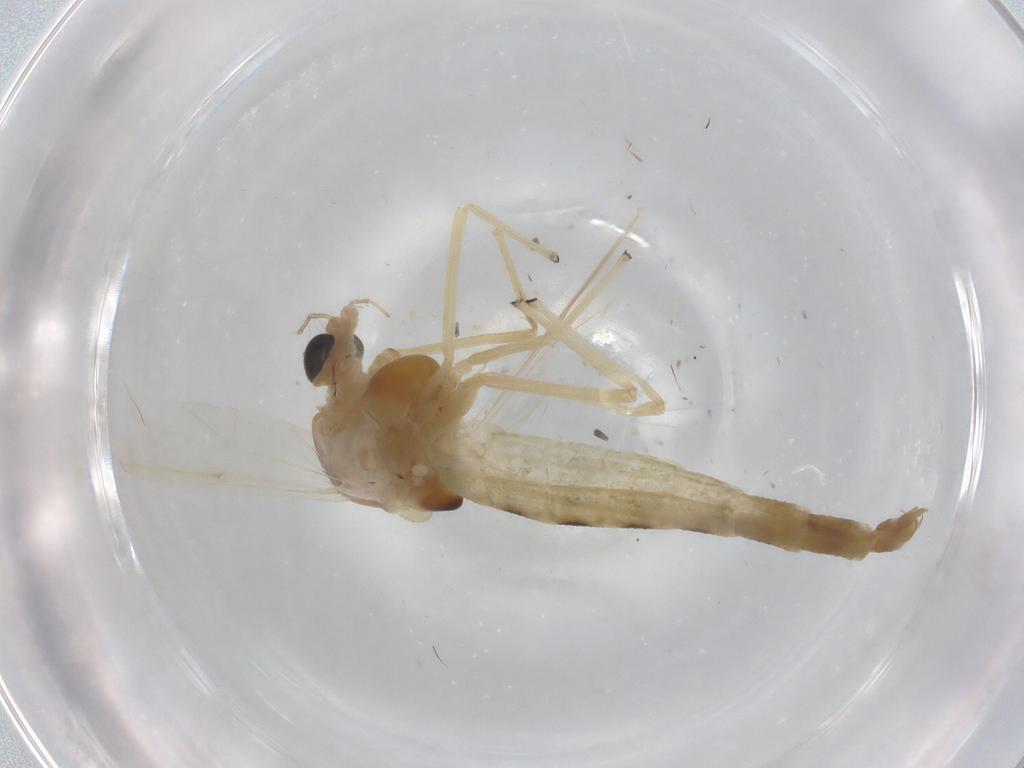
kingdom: Animalia
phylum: Arthropoda
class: Insecta
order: Diptera
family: Chironomidae
